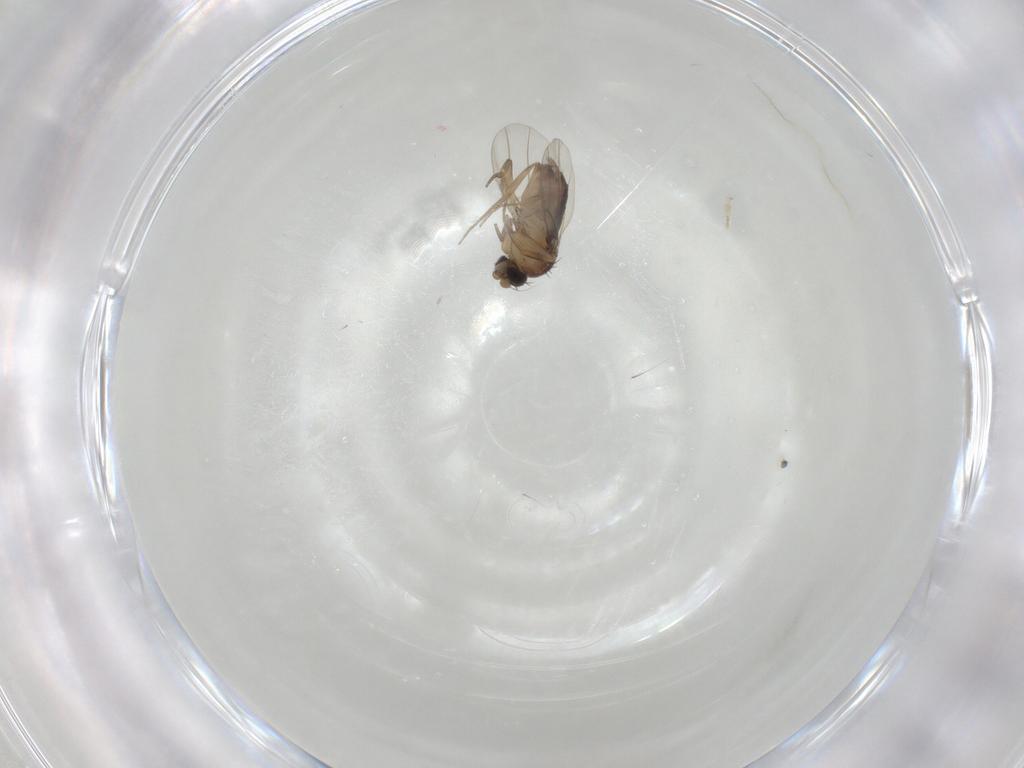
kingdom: Animalia
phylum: Arthropoda
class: Insecta
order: Diptera
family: Phoridae
